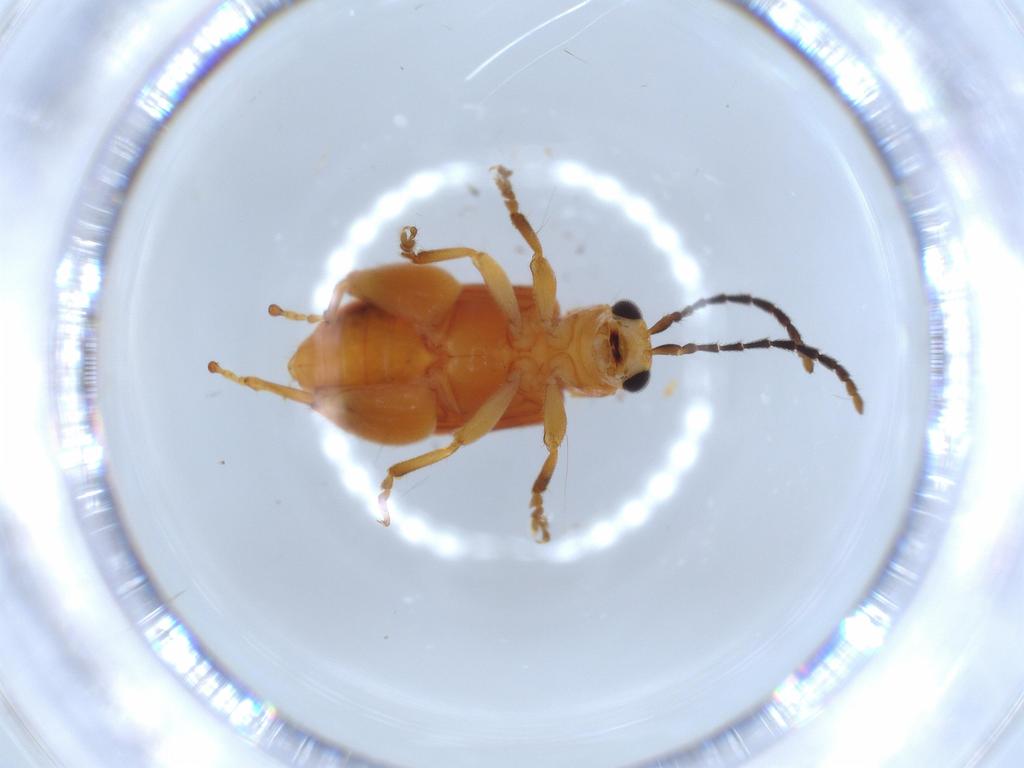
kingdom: Animalia
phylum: Arthropoda
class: Insecta
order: Coleoptera
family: Chrysomelidae
